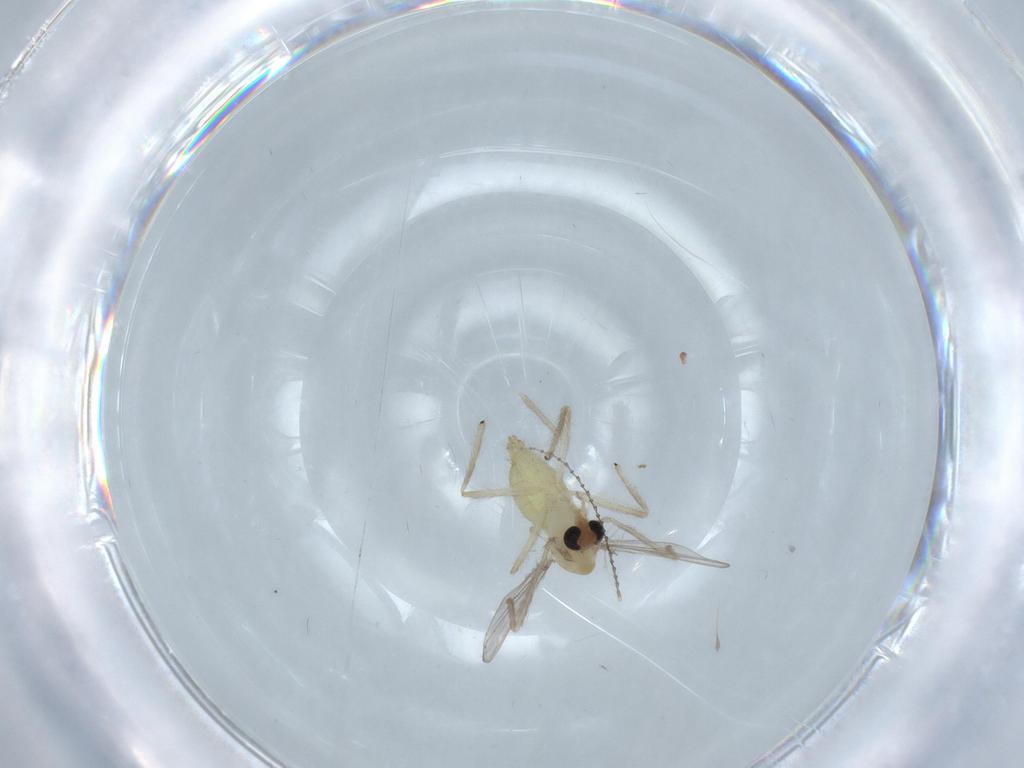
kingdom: Animalia
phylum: Arthropoda
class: Insecta
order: Diptera
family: Chironomidae
